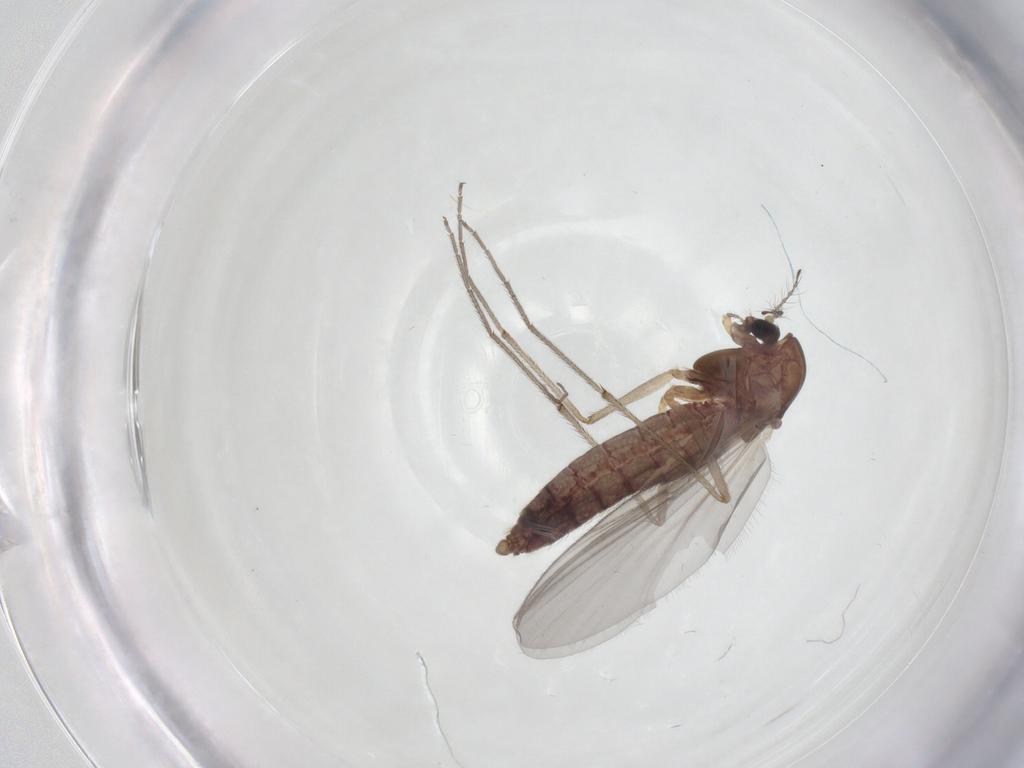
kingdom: Animalia
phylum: Arthropoda
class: Insecta
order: Diptera
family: Chironomidae
